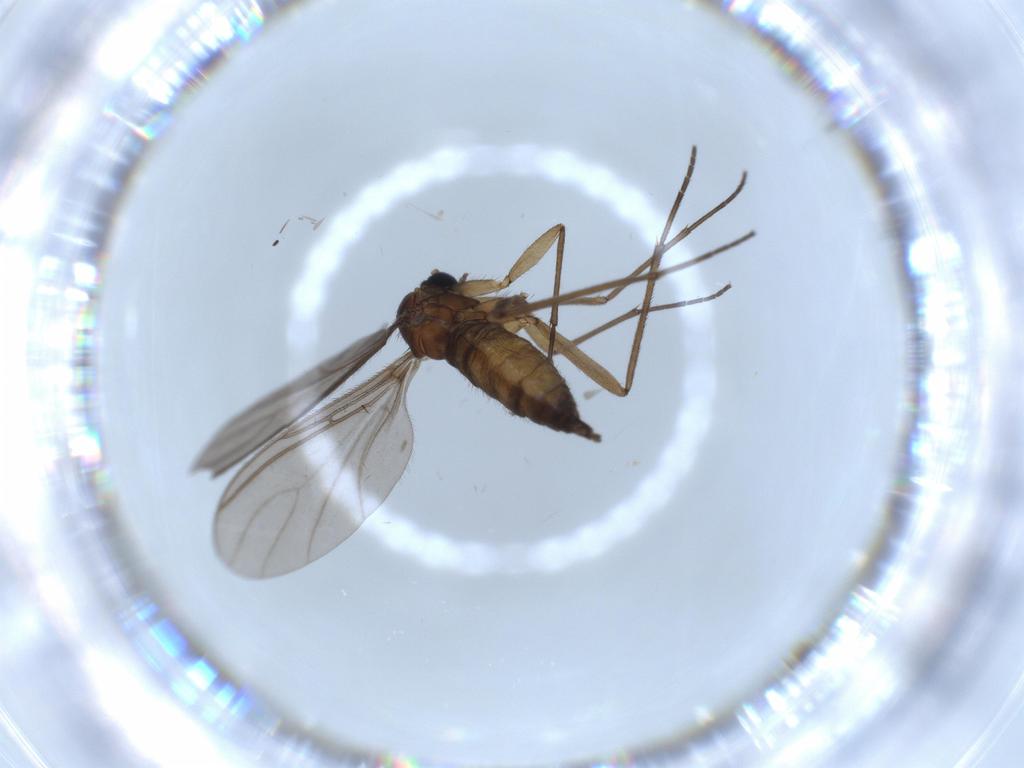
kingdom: Animalia
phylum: Arthropoda
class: Insecta
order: Diptera
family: Sciaridae
